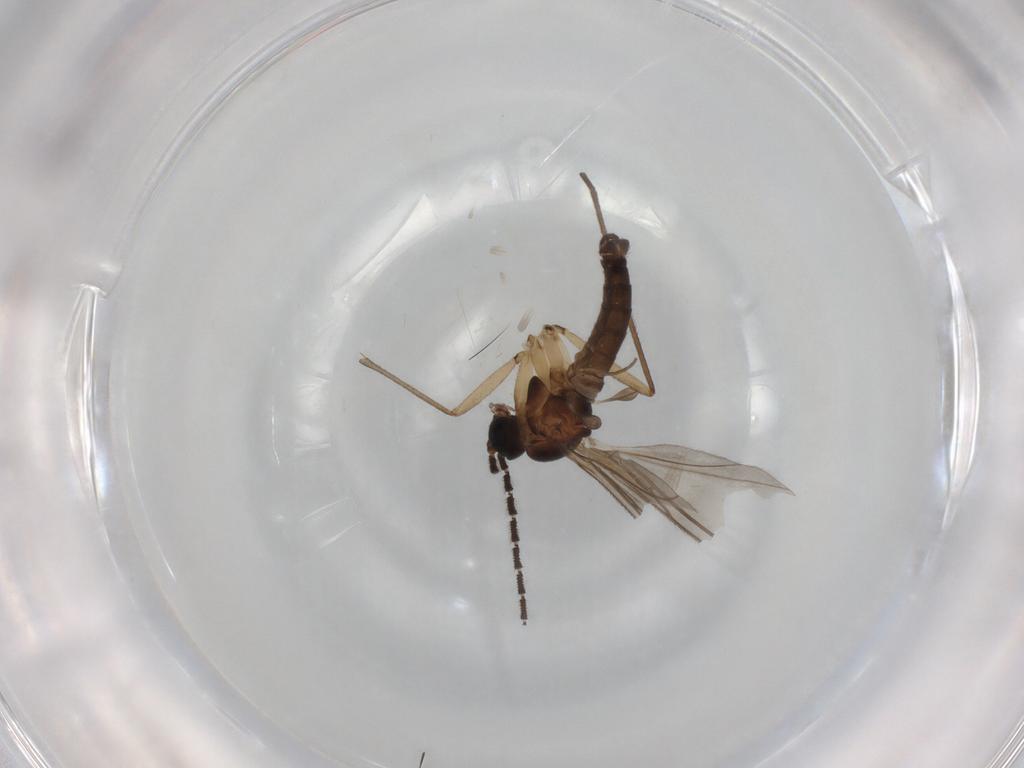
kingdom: Animalia
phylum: Arthropoda
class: Insecta
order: Diptera
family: Sciaridae
